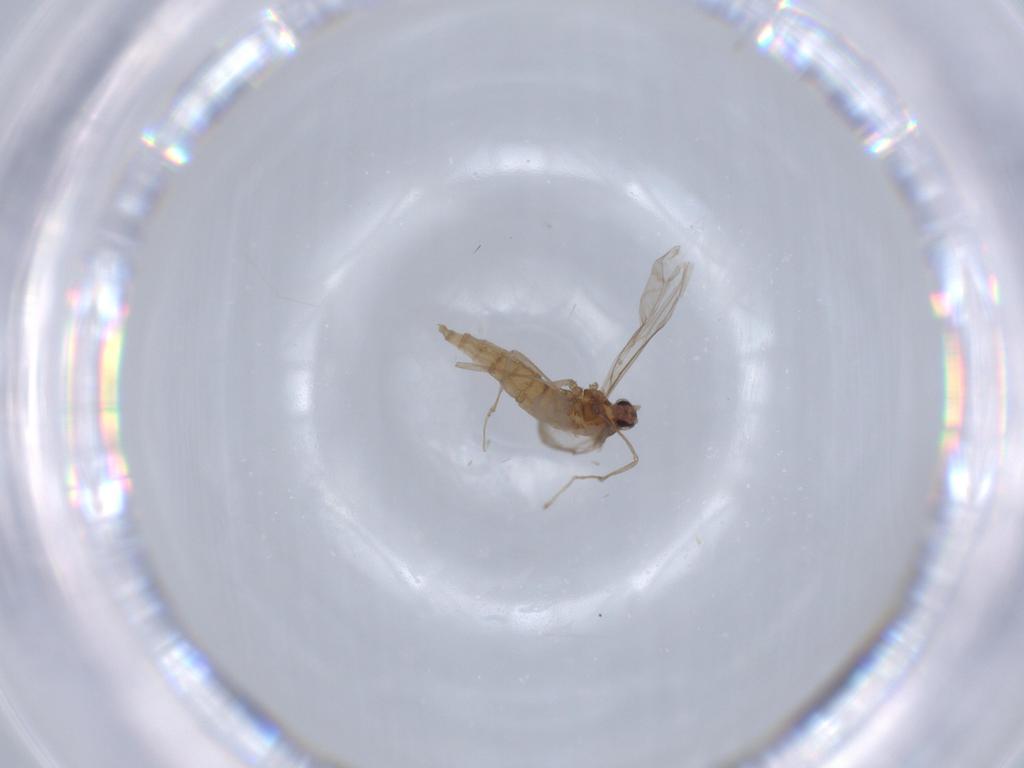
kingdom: Animalia
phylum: Arthropoda
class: Insecta
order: Diptera
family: Cecidomyiidae
